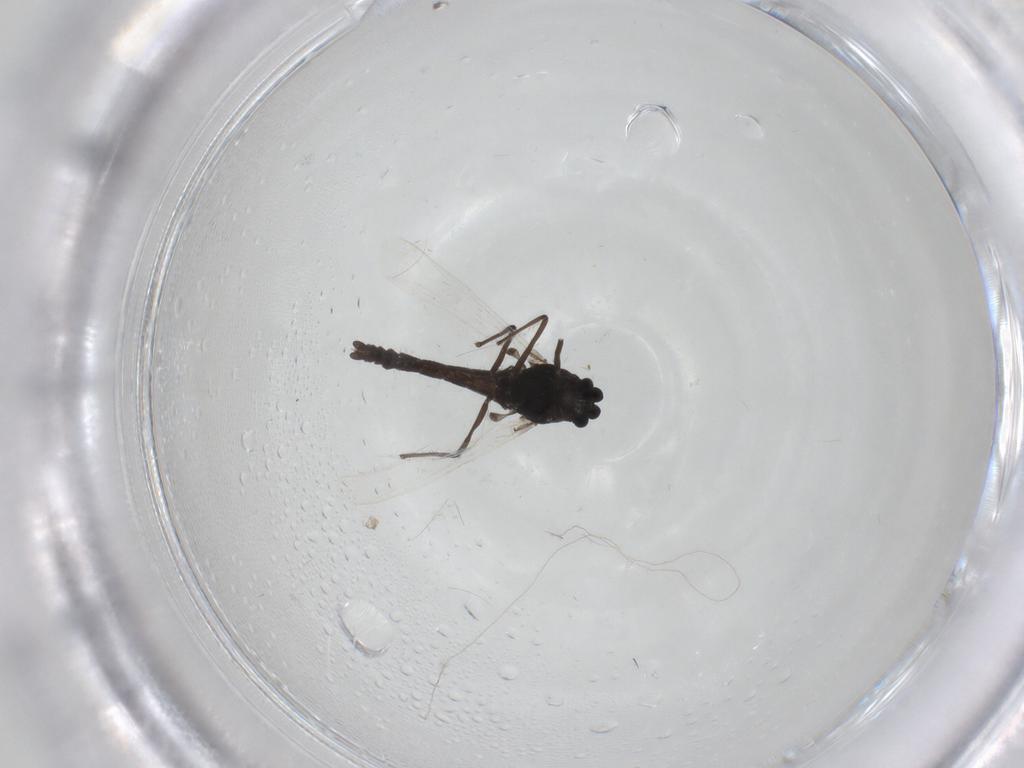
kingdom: Animalia
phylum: Arthropoda
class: Insecta
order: Diptera
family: Chironomidae
